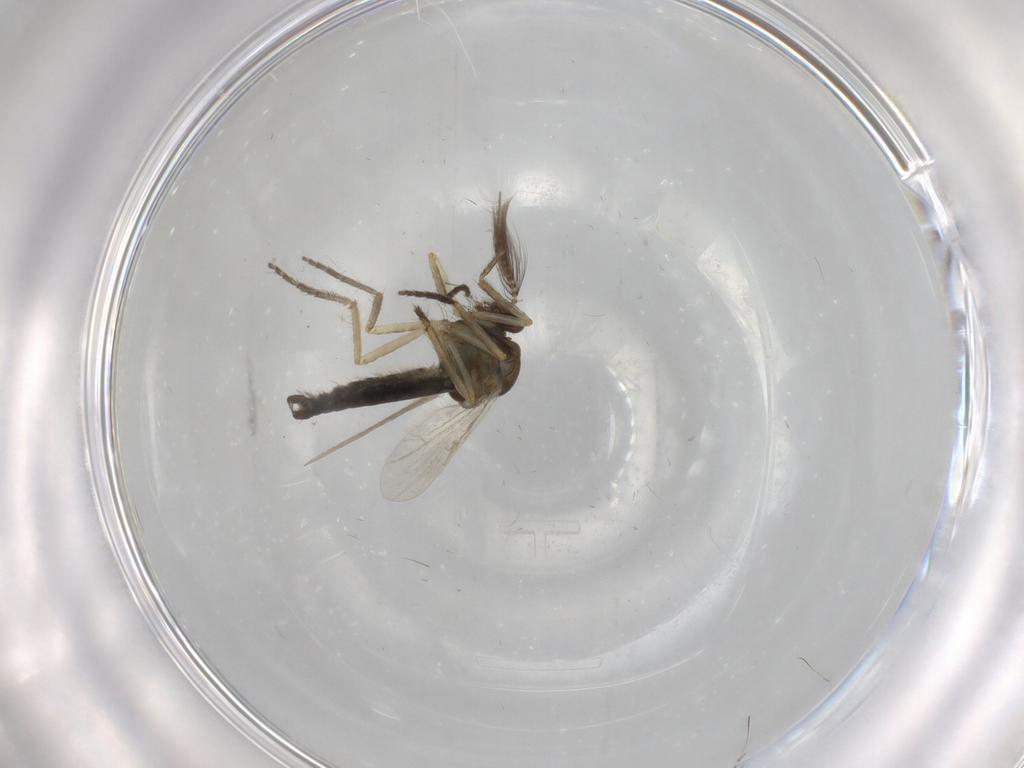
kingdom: Animalia
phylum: Arthropoda
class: Insecta
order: Diptera
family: Ceratopogonidae
